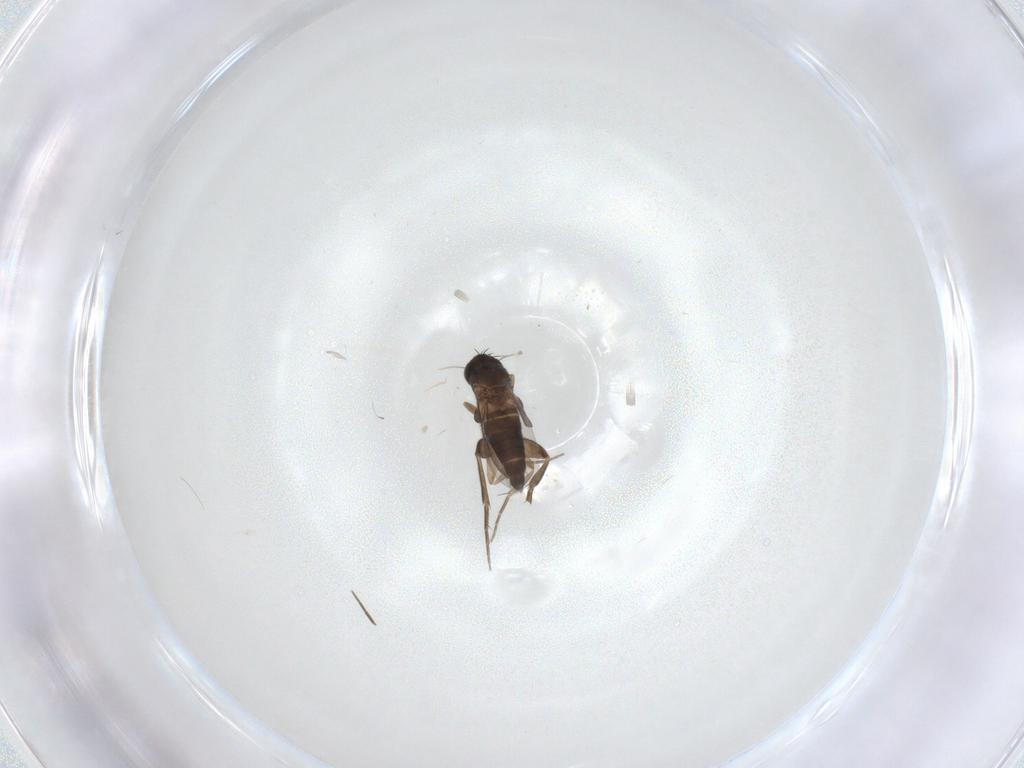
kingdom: Animalia
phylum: Arthropoda
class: Insecta
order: Diptera
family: Phoridae
